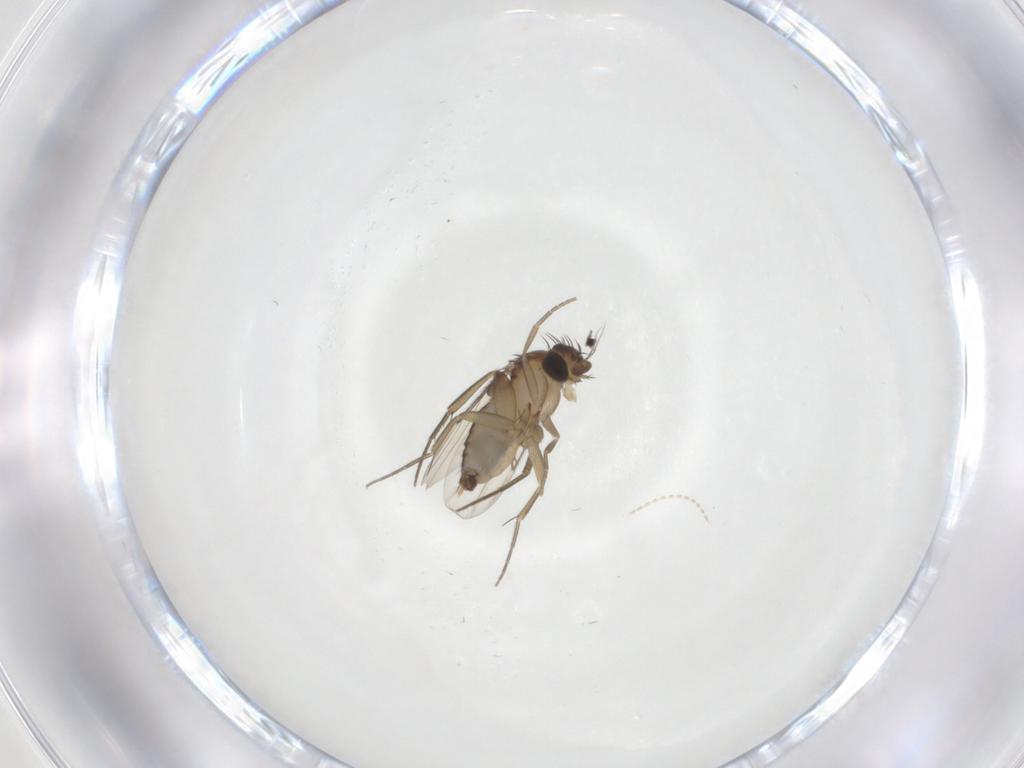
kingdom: Animalia
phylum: Arthropoda
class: Insecta
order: Diptera
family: Phoridae
